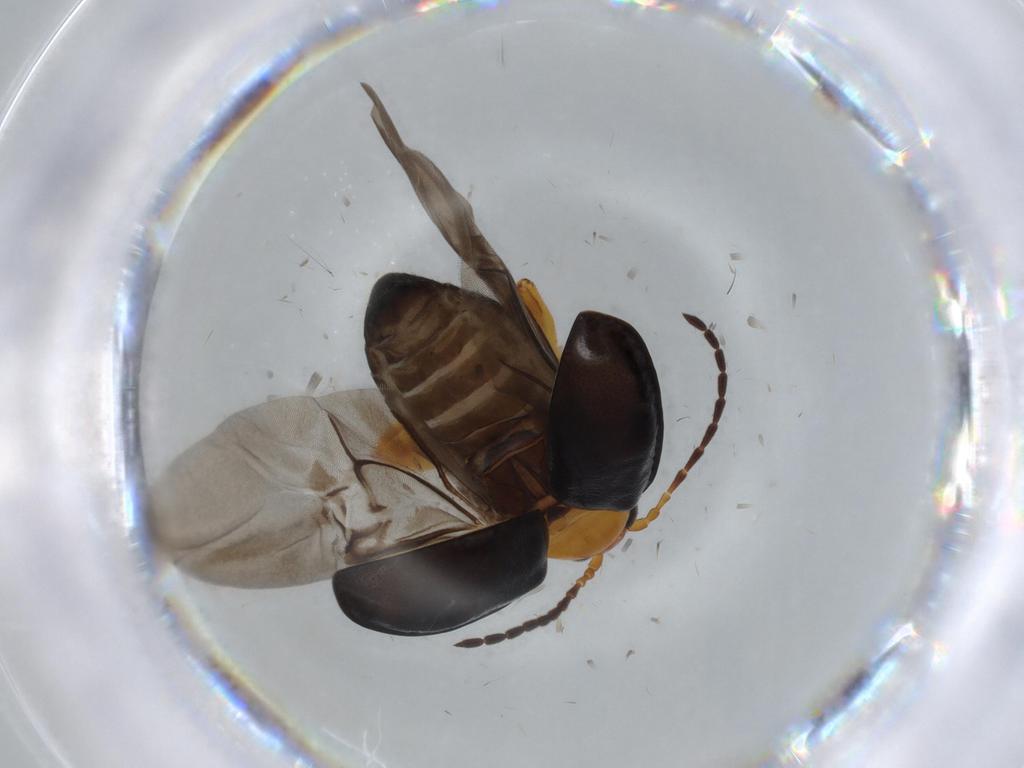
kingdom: Animalia
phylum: Arthropoda
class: Insecta
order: Coleoptera
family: Chrysomelidae
